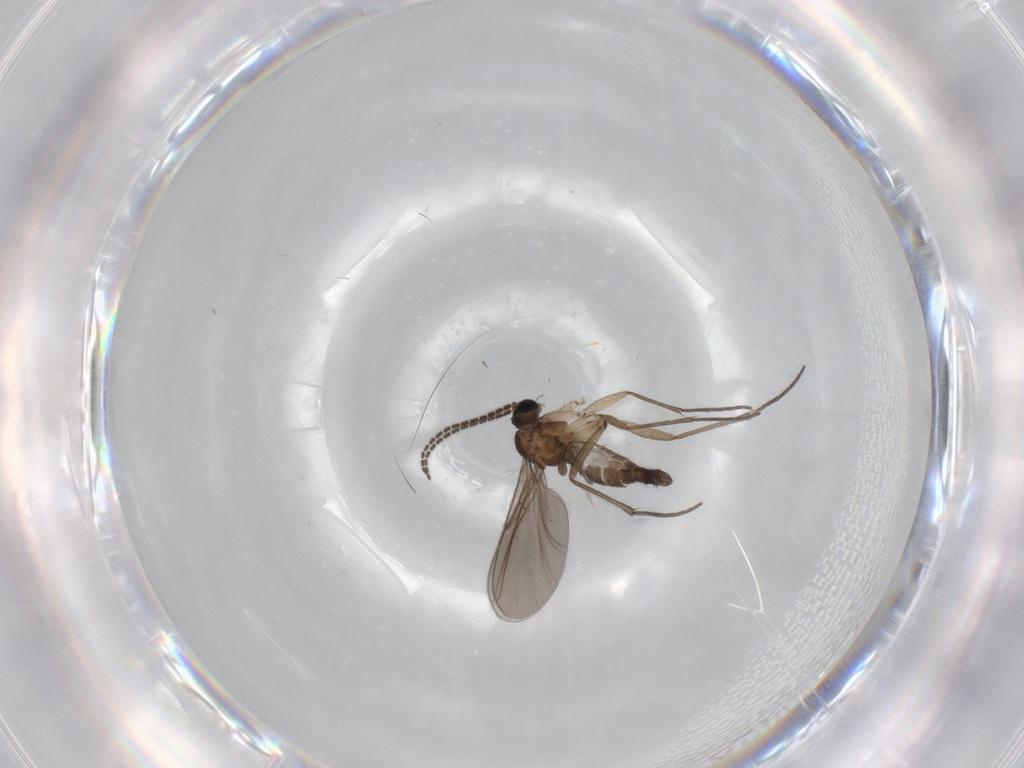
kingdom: Animalia
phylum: Arthropoda
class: Insecta
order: Diptera
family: Sciaridae
